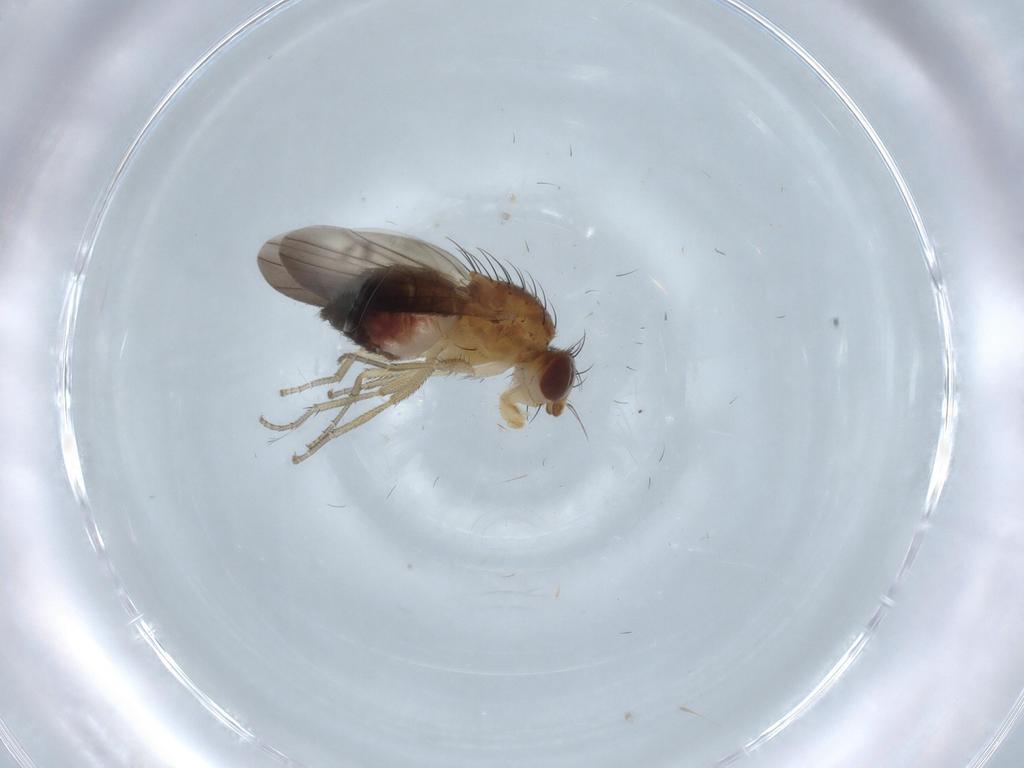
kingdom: Animalia
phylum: Arthropoda
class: Insecta
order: Diptera
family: Heleomyzidae
